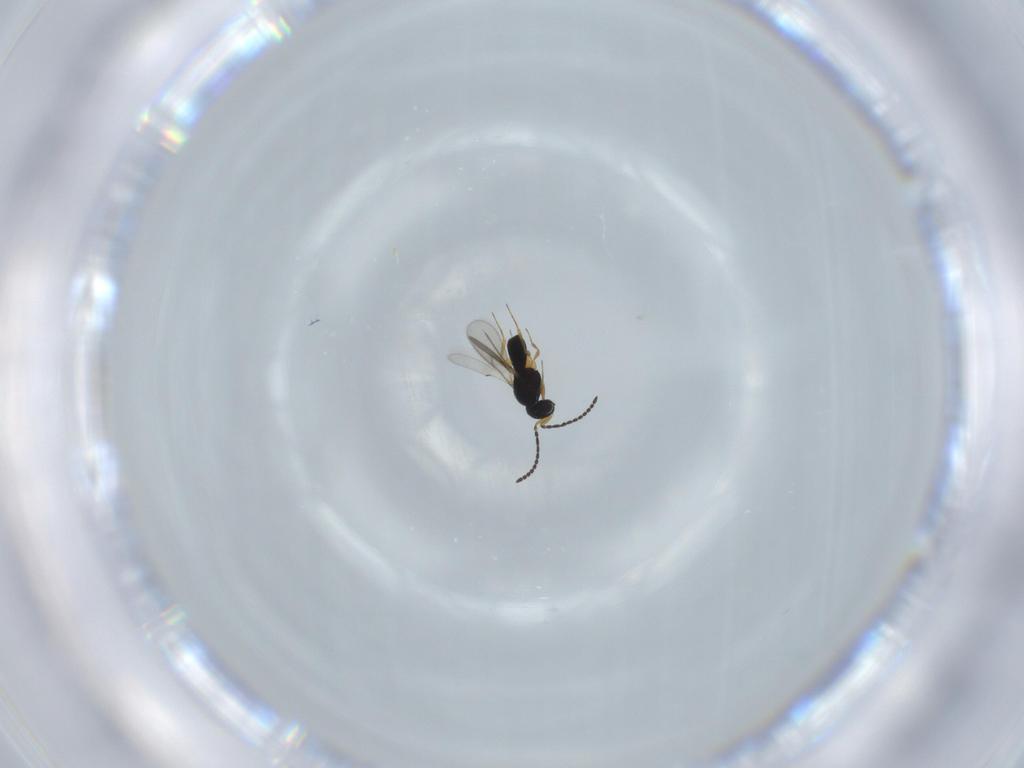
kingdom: Animalia
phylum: Arthropoda
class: Insecta
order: Hymenoptera
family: Scelionidae
